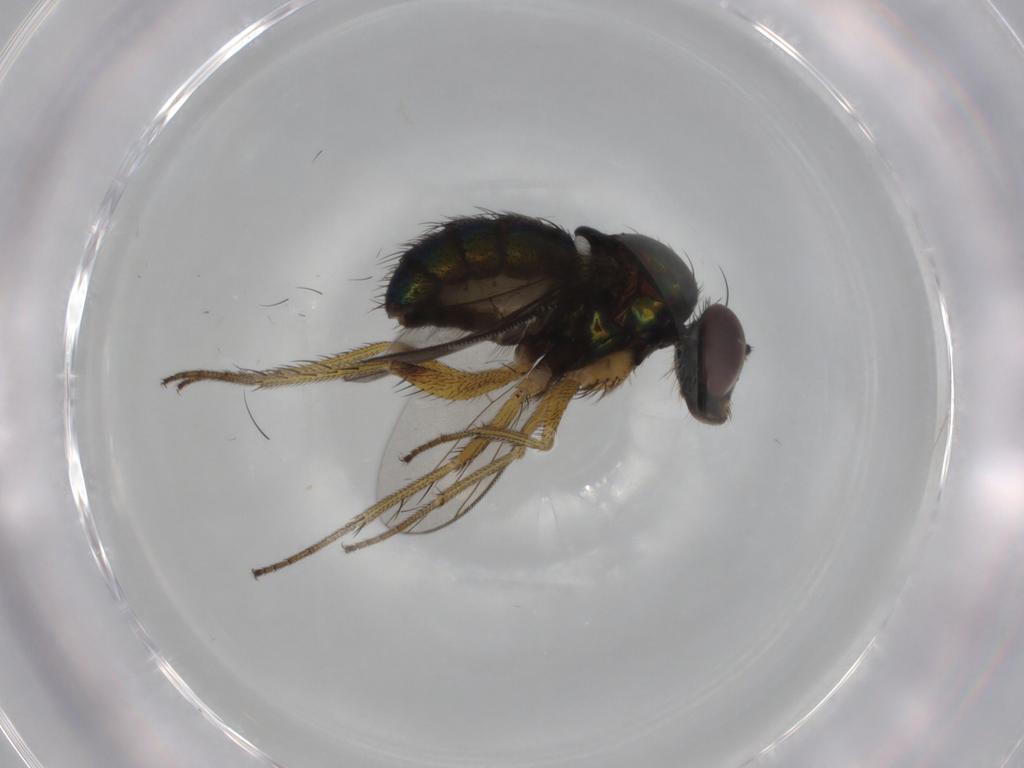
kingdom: Animalia
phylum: Arthropoda
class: Insecta
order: Diptera
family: Dolichopodidae
